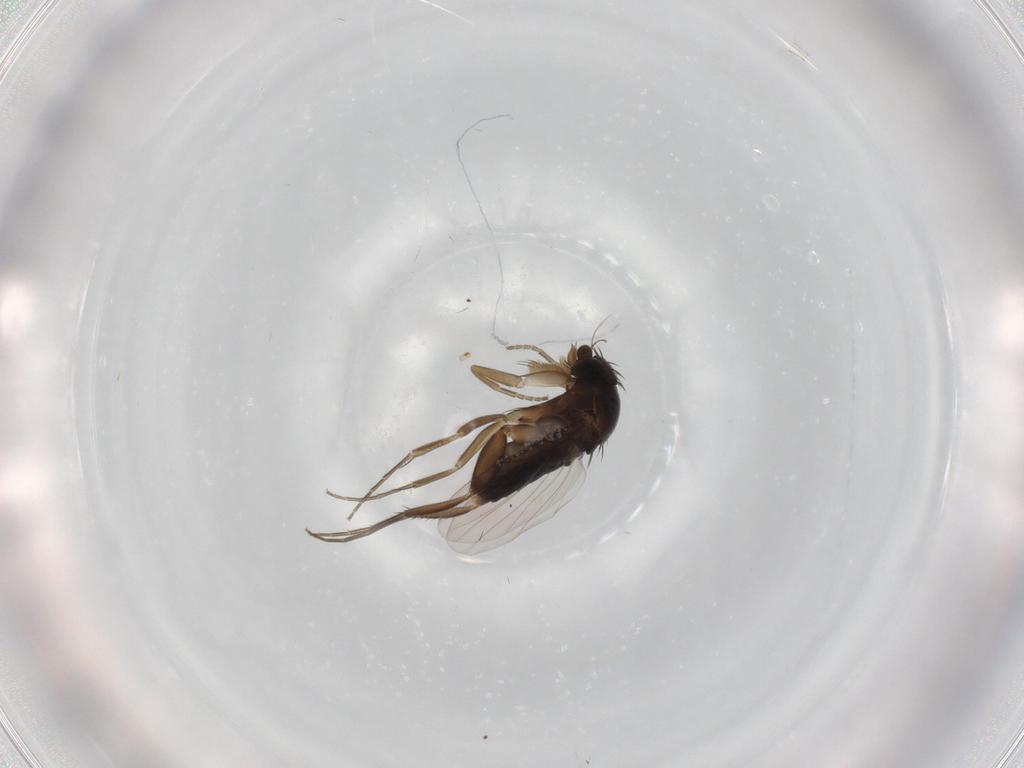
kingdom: Animalia
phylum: Arthropoda
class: Insecta
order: Diptera
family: Phoridae
